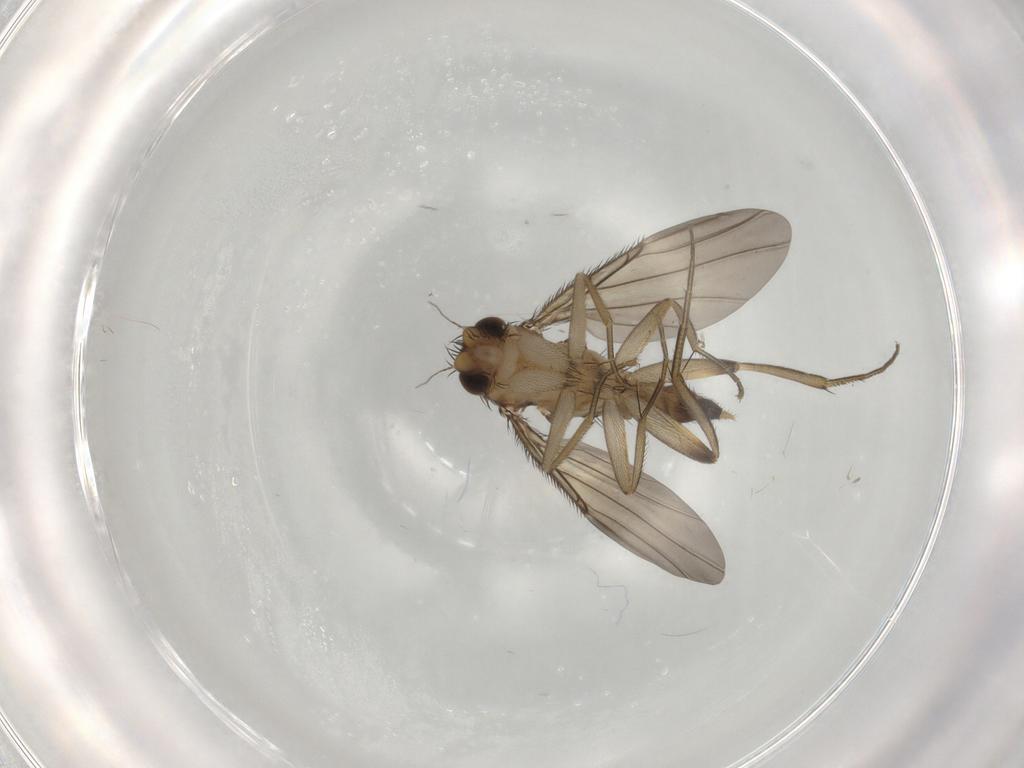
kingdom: Animalia
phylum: Arthropoda
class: Insecta
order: Diptera
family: Phoridae
